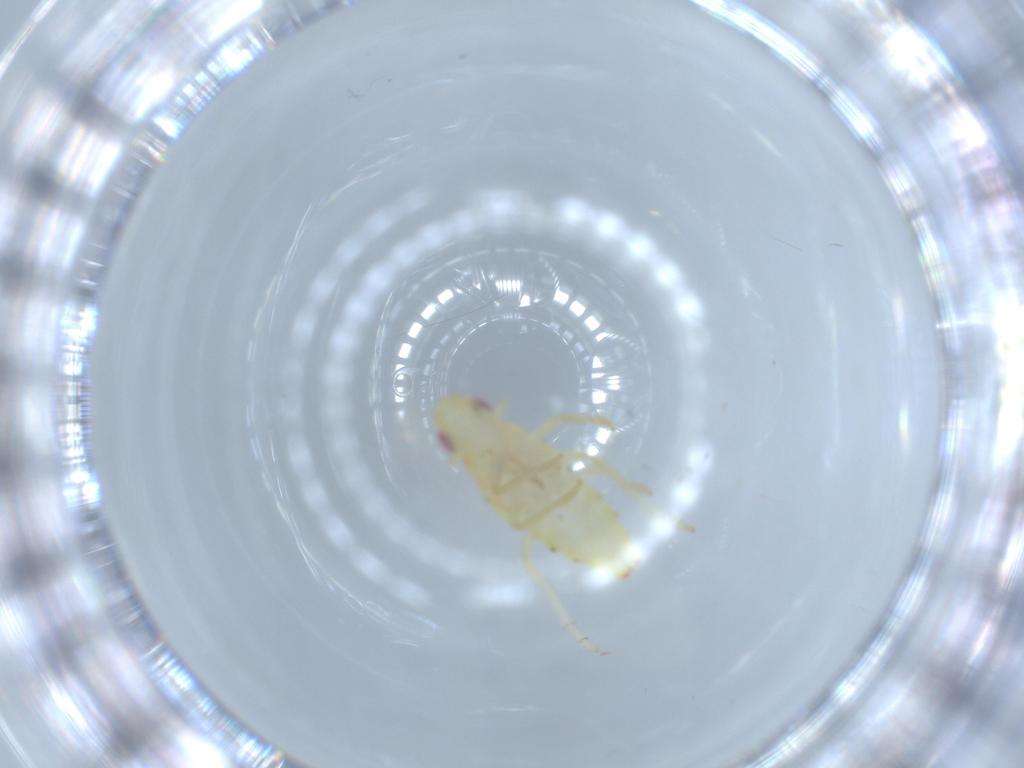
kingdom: Animalia
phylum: Arthropoda
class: Insecta
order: Hemiptera
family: Tropiduchidae
